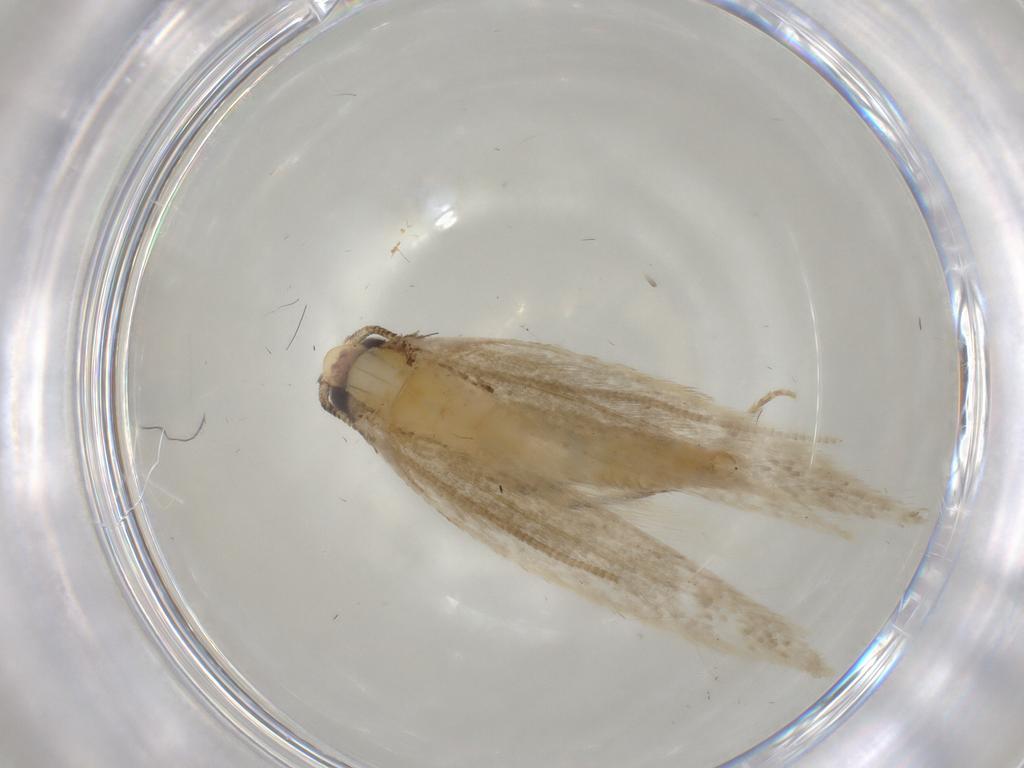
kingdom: Animalia
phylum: Arthropoda
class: Insecta
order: Lepidoptera
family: Tineidae
